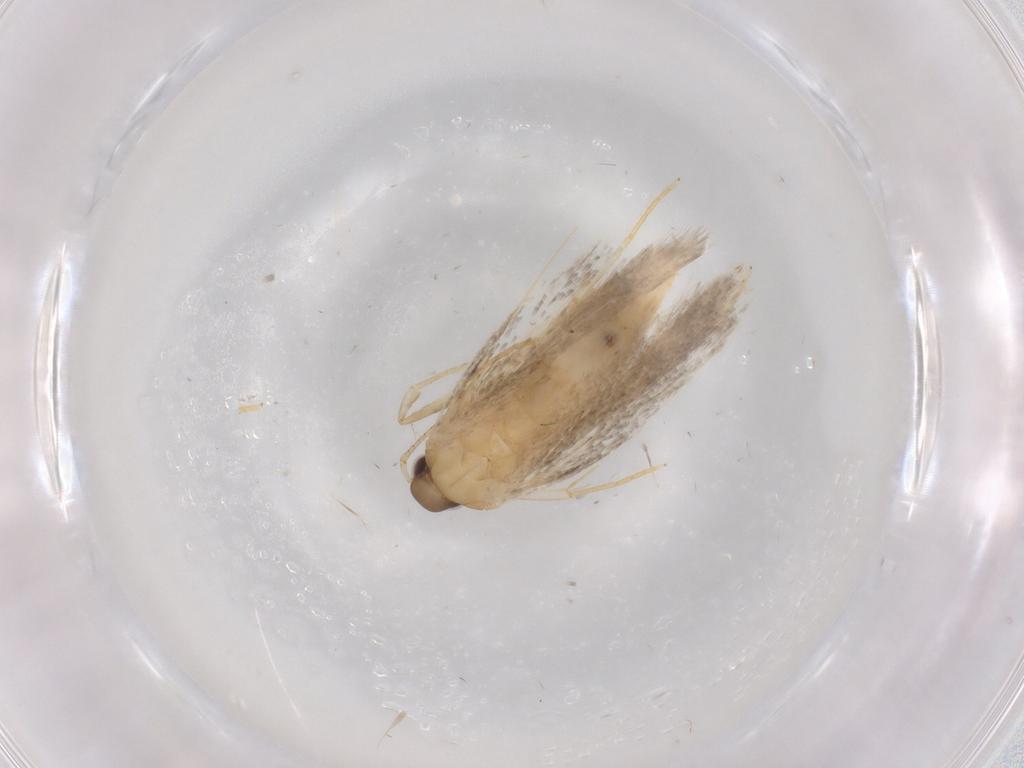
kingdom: Animalia
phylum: Arthropoda
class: Insecta
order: Lepidoptera
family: Autostichidae
